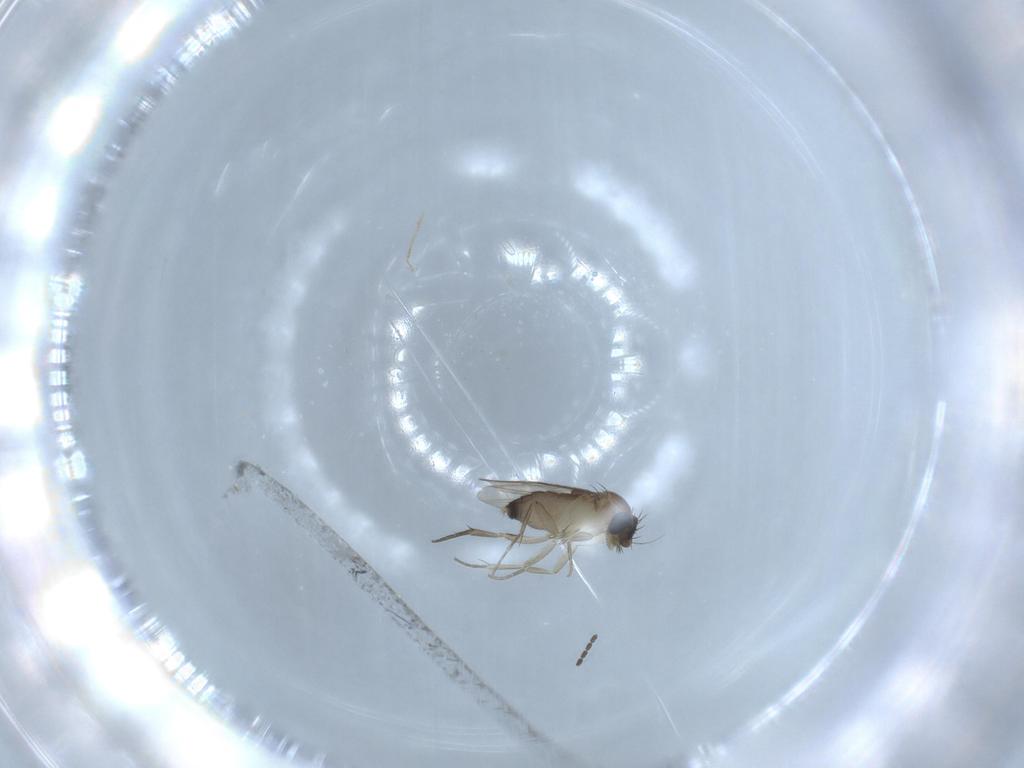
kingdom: Animalia
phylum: Arthropoda
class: Insecta
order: Diptera
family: Phoridae
